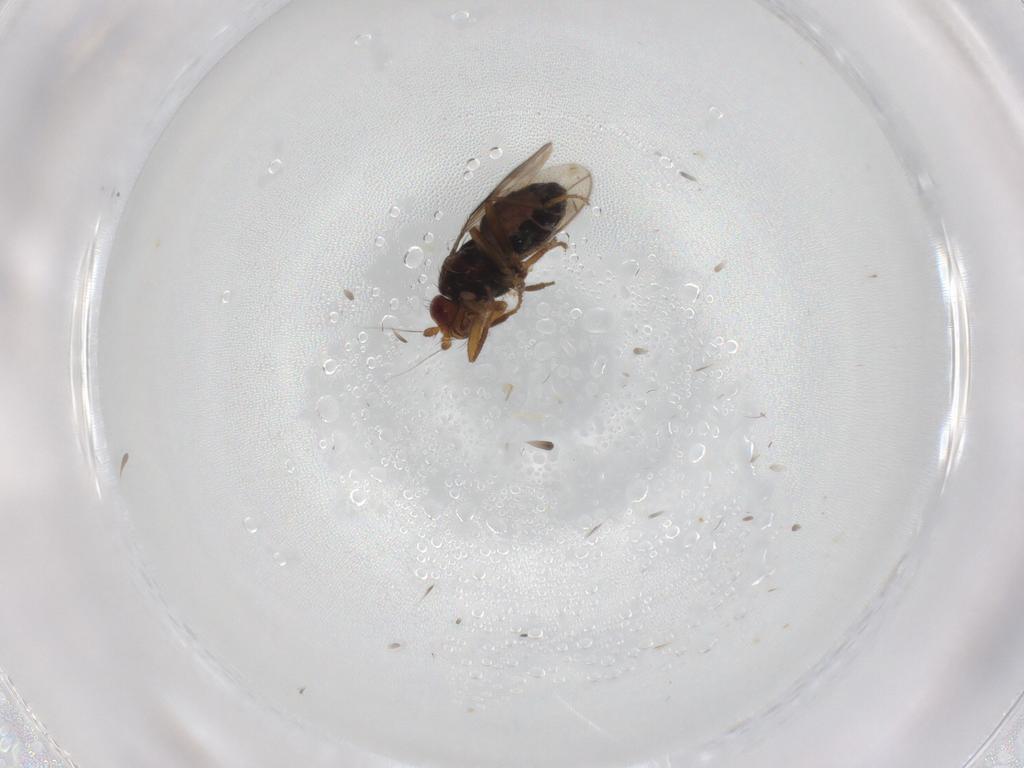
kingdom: Animalia
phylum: Arthropoda
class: Insecta
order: Diptera
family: Sphaeroceridae
